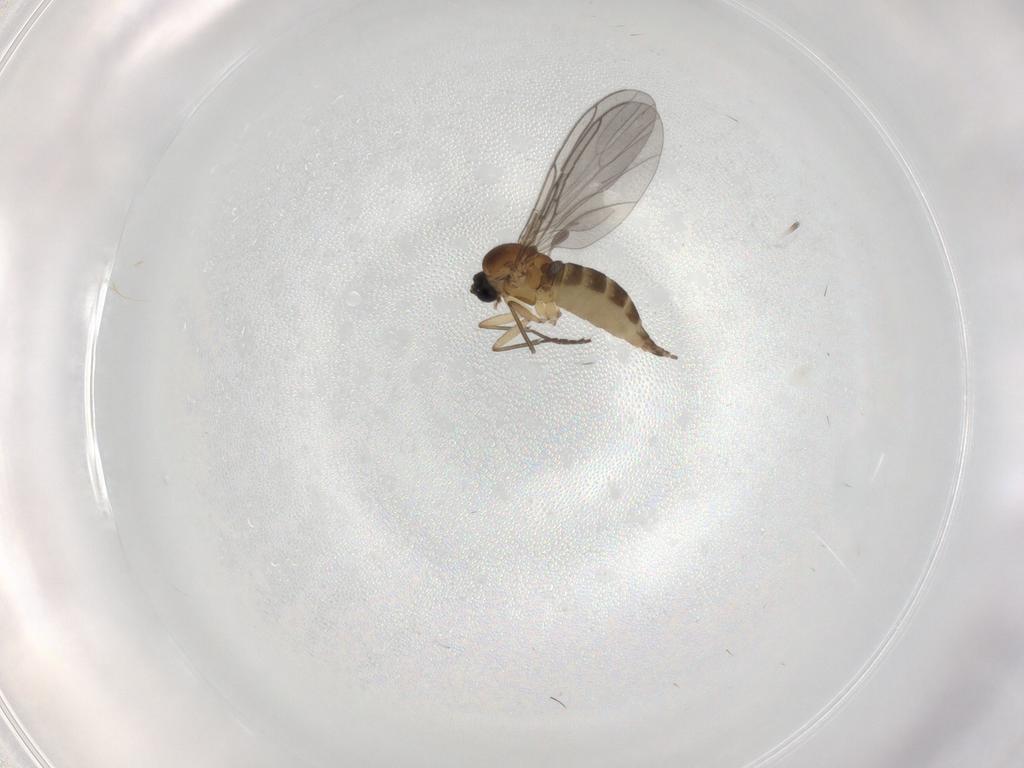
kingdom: Animalia
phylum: Arthropoda
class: Insecta
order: Diptera
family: Sciaridae
